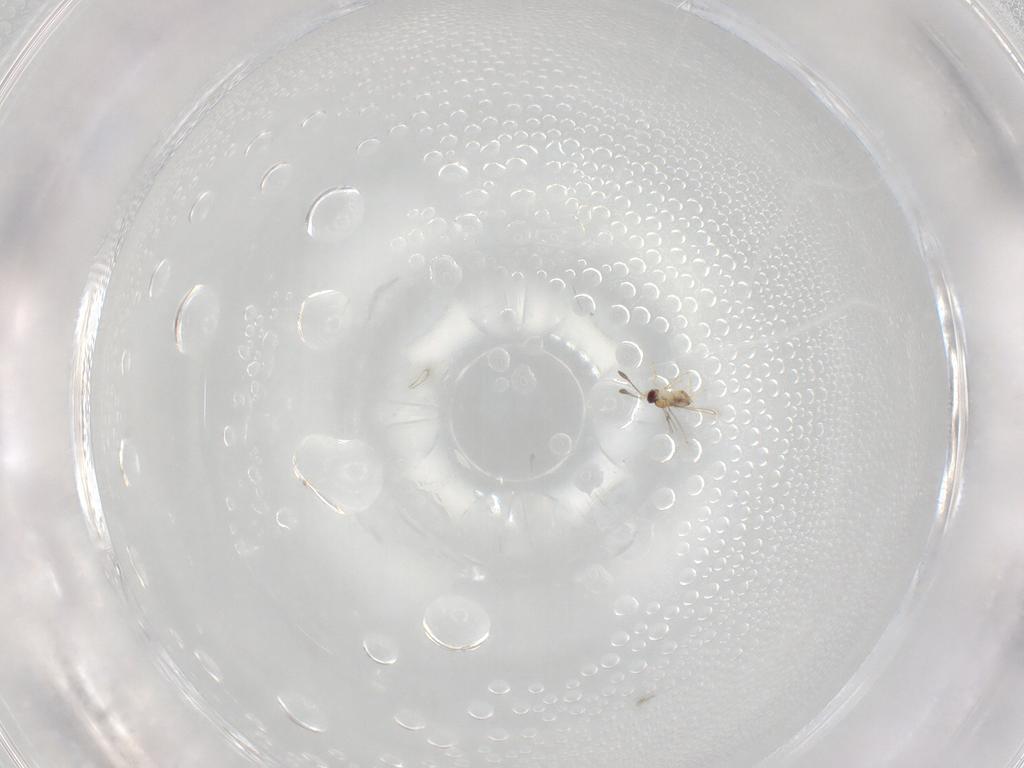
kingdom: Animalia
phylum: Arthropoda
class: Insecta
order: Hymenoptera
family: Mymaridae
